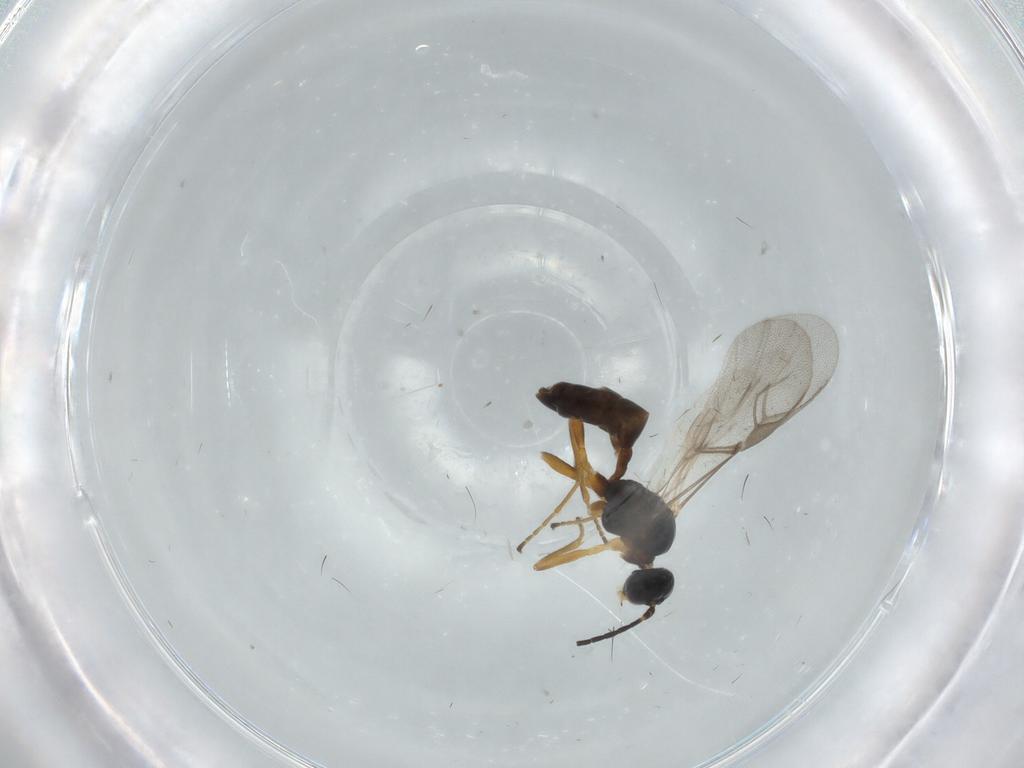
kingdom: Animalia
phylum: Arthropoda
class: Insecta
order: Hymenoptera
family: Braconidae
